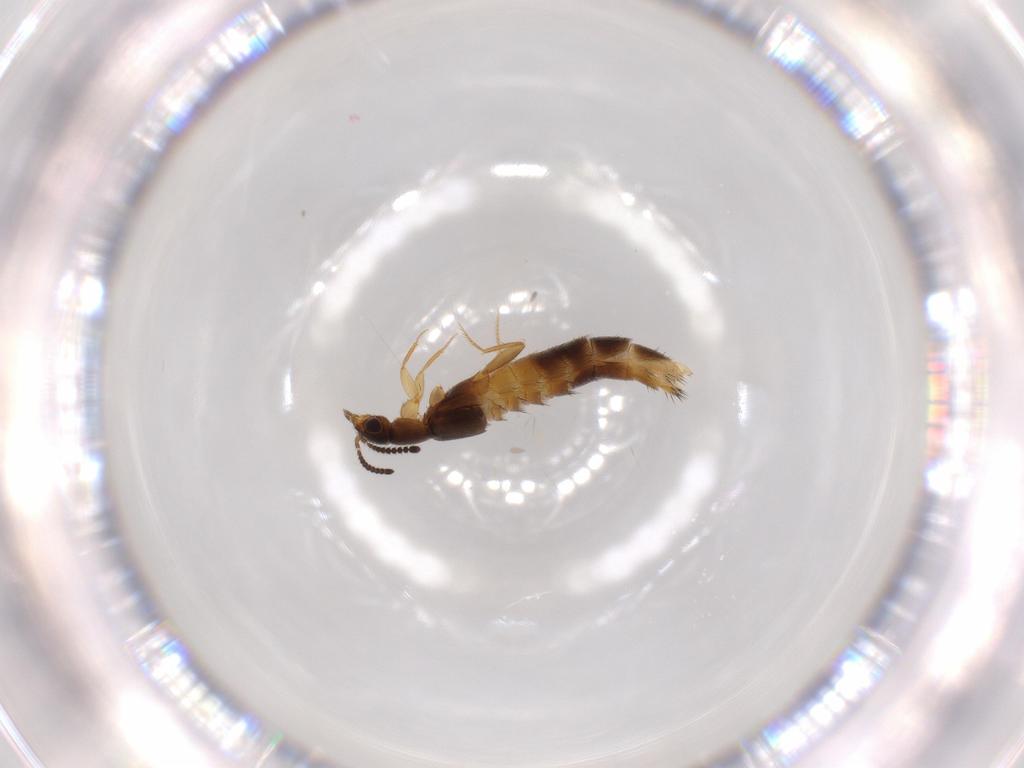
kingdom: Animalia
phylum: Arthropoda
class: Insecta
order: Coleoptera
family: Staphylinidae
